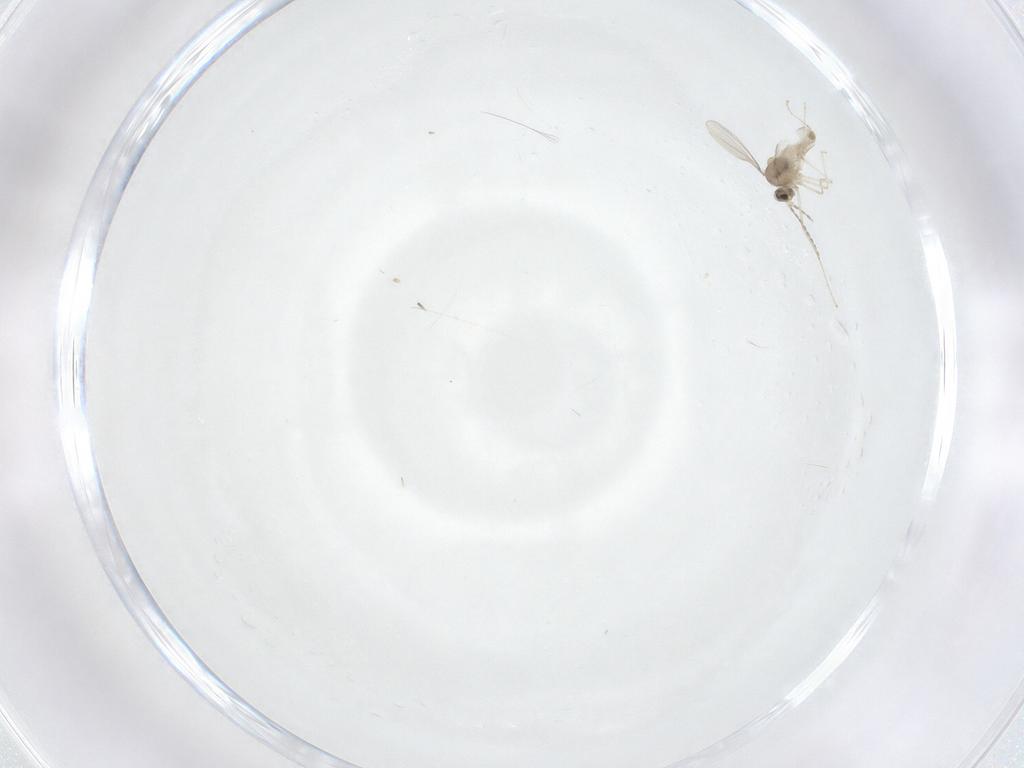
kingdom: Animalia
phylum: Arthropoda
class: Insecta
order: Diptera
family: Cecidomyiidae
